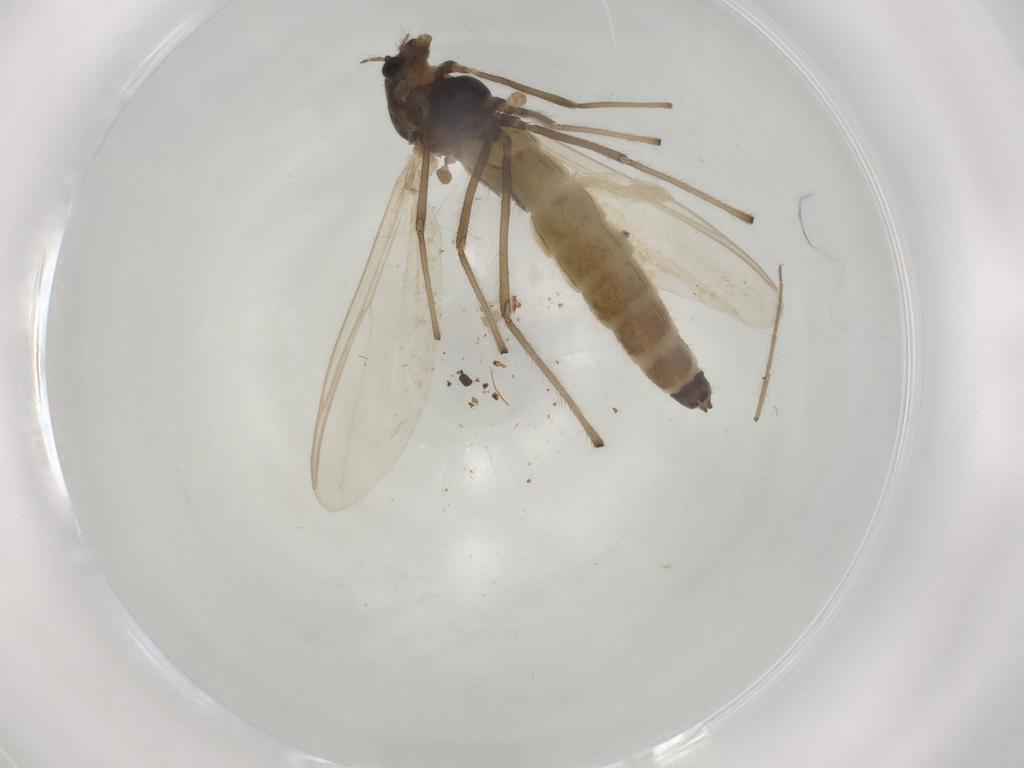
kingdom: Animalia
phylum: Arthropoda
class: Insecta
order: Diptera
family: Chironomidae
